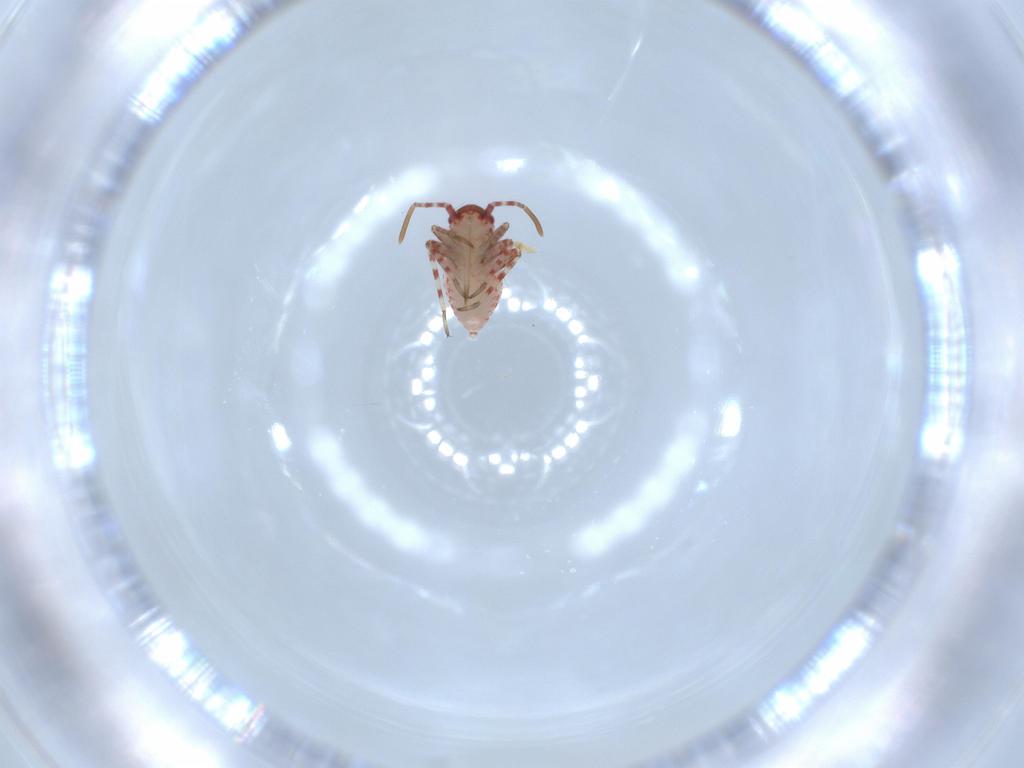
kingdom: Animalia
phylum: Arthropoda
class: Insecta
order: Hemiptera
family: Miridae
